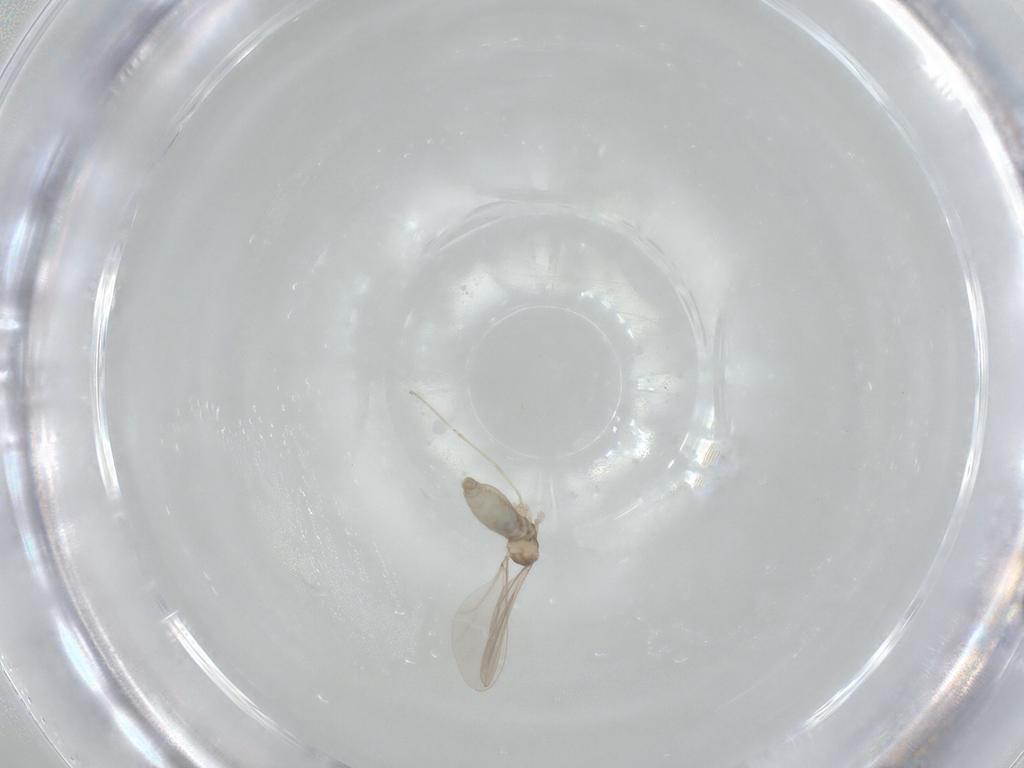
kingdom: Animalia
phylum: Arthropoda
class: Insecta
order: Diptera
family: Cecidomyiidae
